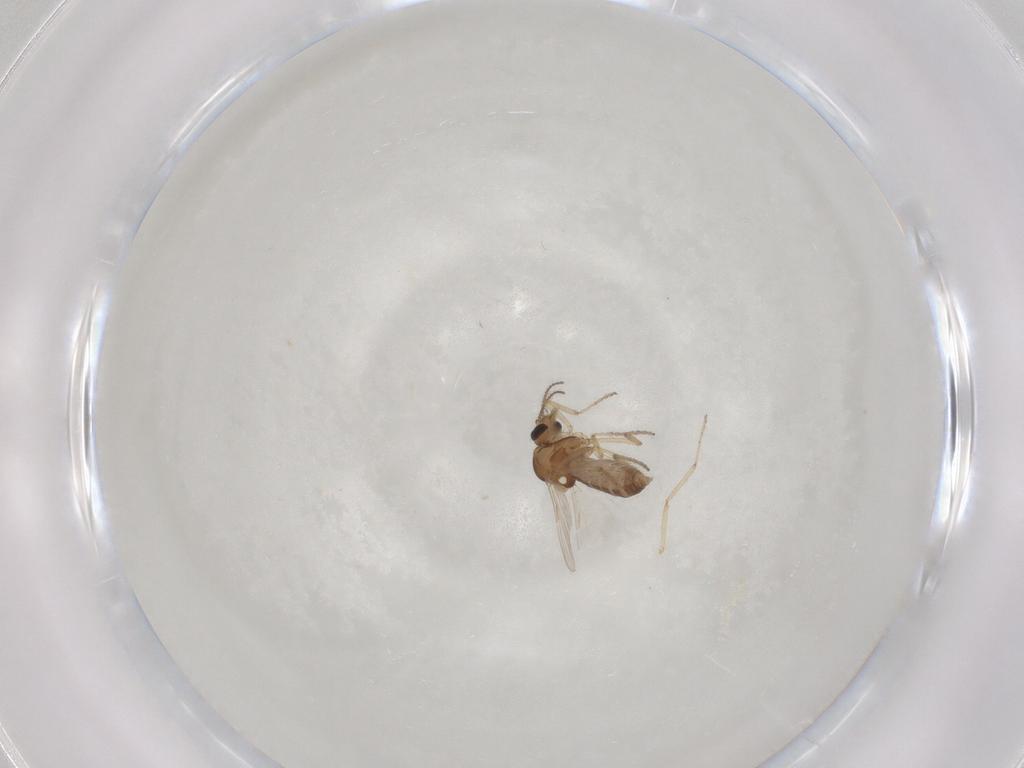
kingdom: Animalia
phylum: Arthropoda
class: Insecta
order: Diptera
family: Ceratopogonidae
